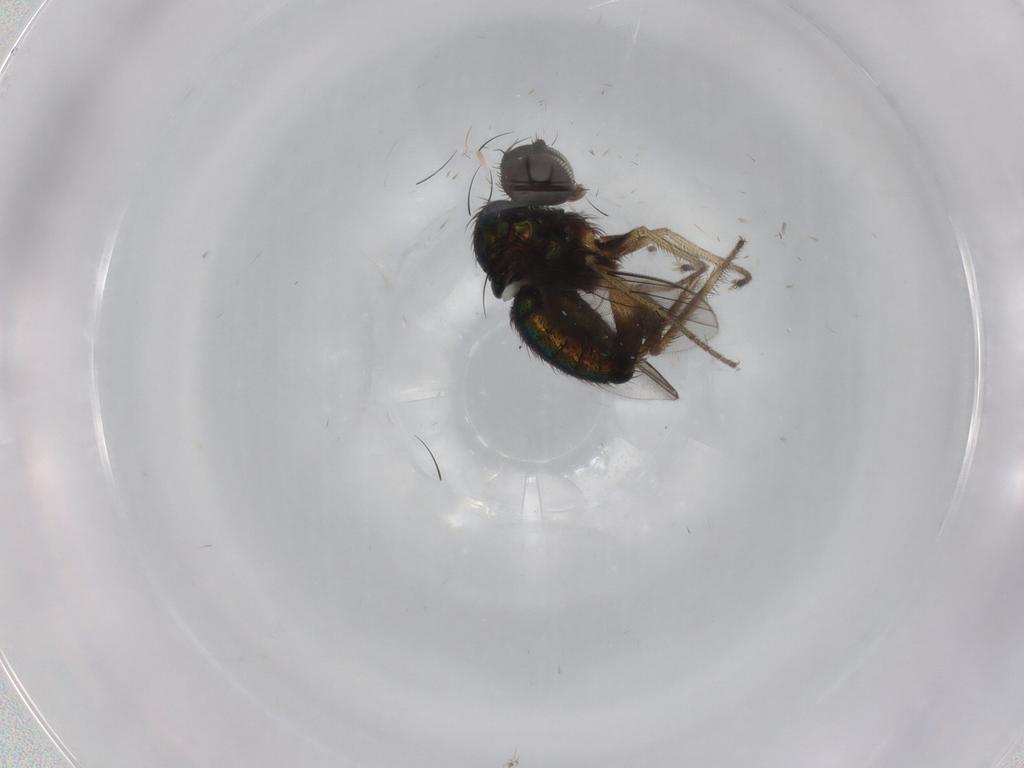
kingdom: Animalia
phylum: Arthropoda
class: Insecta
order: Diptera
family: Dolichopodidae
